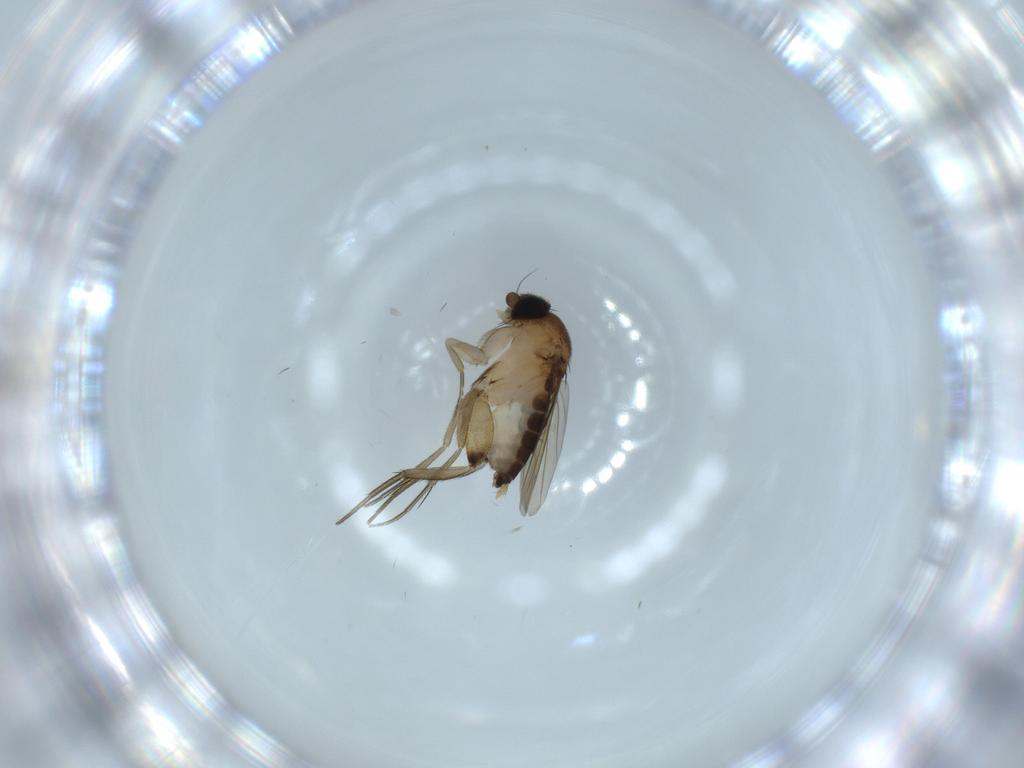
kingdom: Animalia
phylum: Arthropoda
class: Insecta
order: Diptera
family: Phoridae
